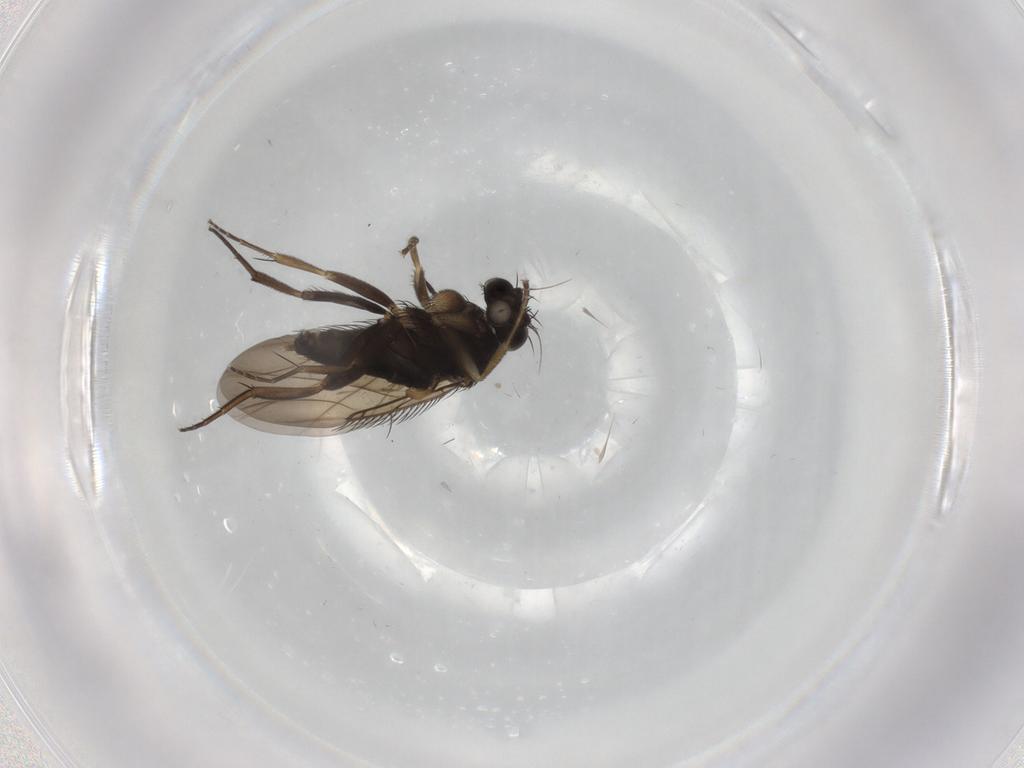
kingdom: Animalia
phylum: Arthropoda
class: Insecta
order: Diptera
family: Phoridae
